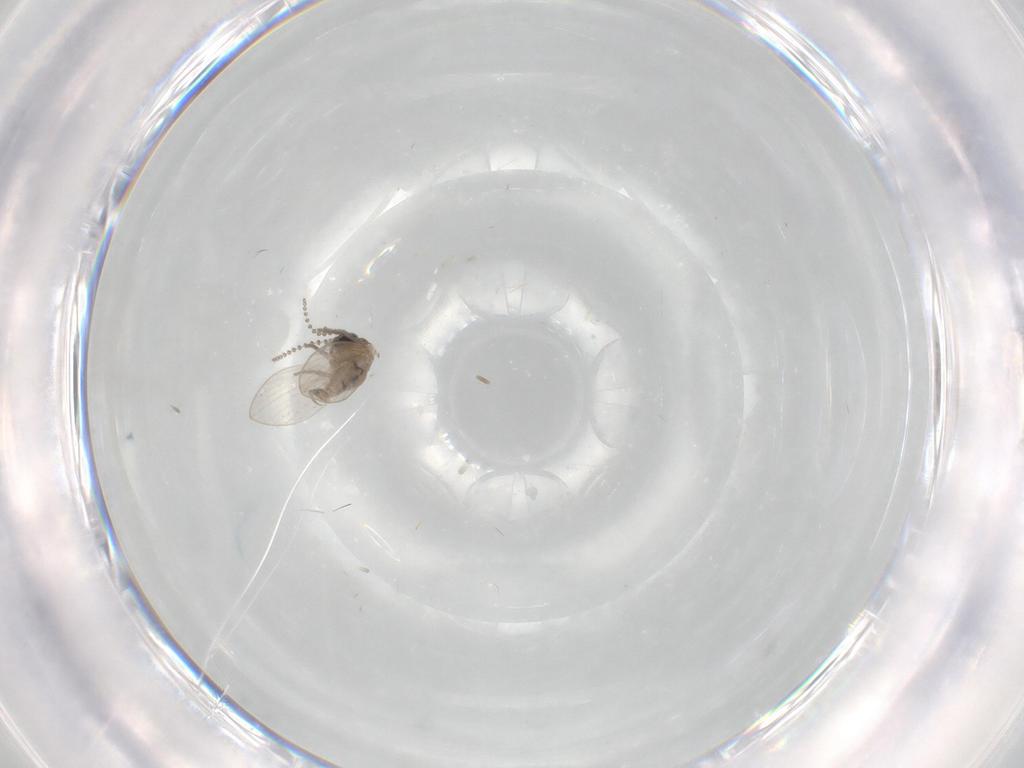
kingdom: Animalia
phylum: Arthropoda
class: Insecta
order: Diptera
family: Psychodidae
